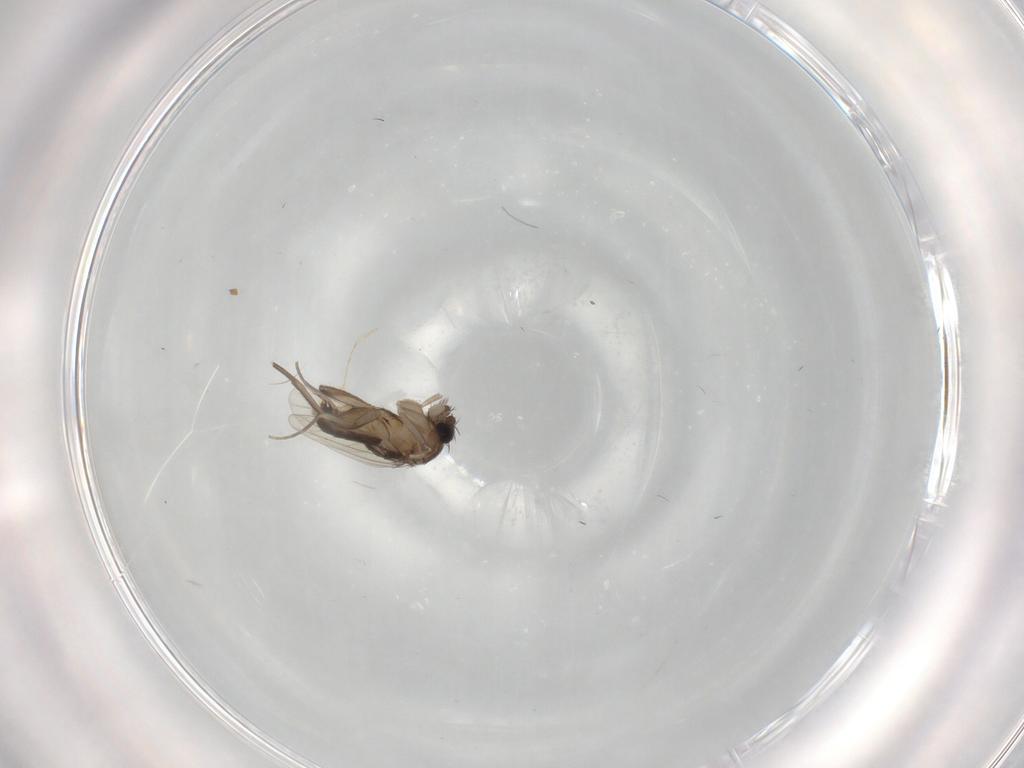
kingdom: Animalia
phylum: Arthropoda
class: Insecta
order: Diptera
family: Phoridae
